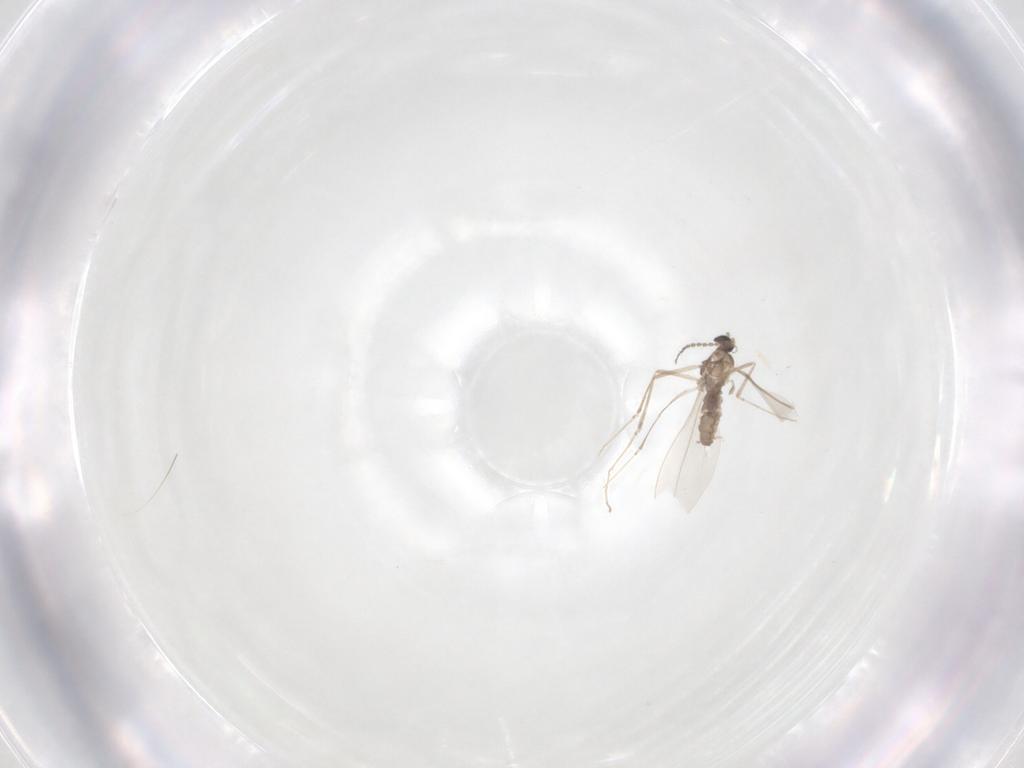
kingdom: Animalia
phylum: Arthropoda
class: Insecta
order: Diptera
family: Cecidomyiidae
